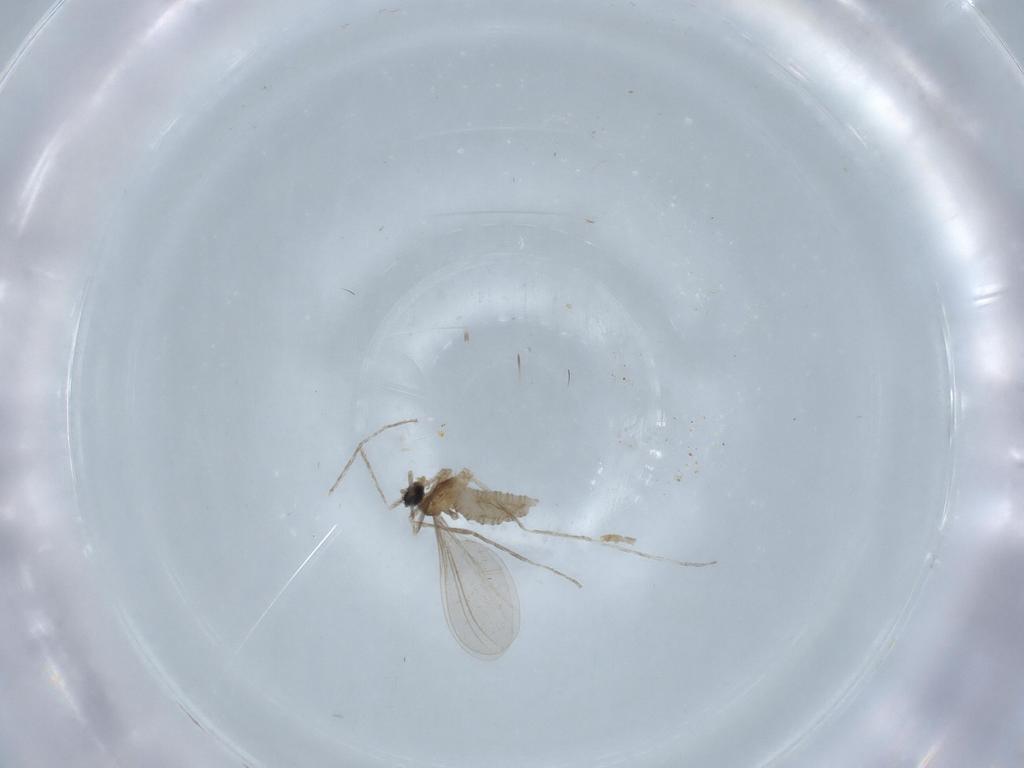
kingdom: Animalia
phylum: Arthropoda
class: Insecta
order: Diptera
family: Cecidomyiidae
